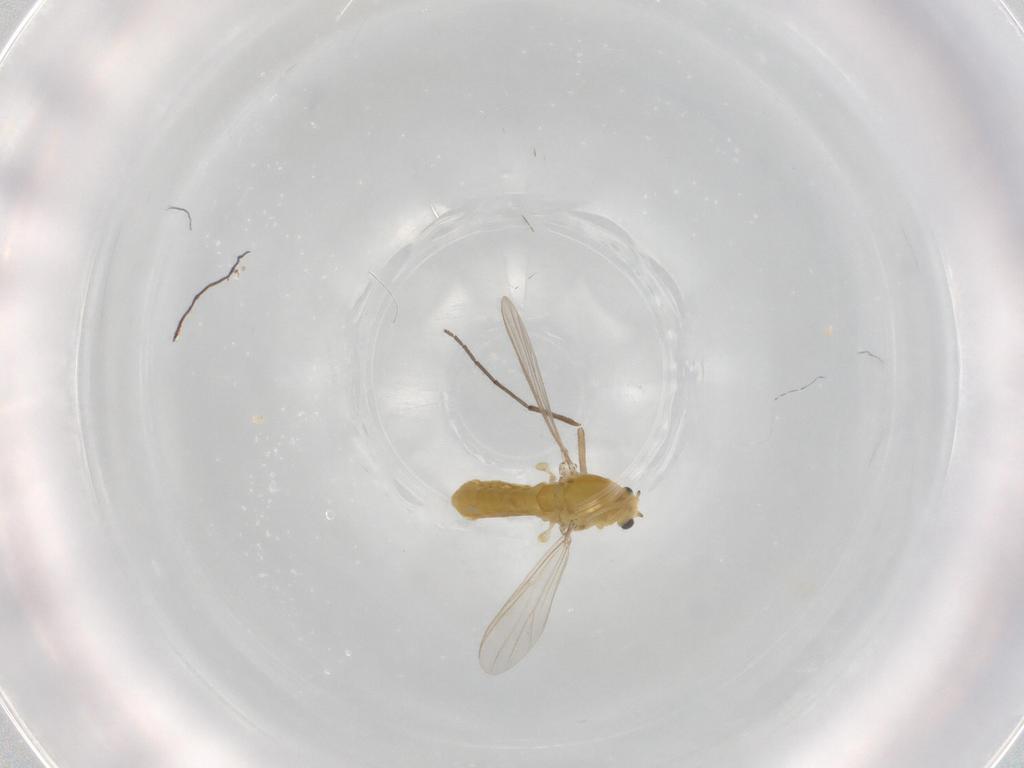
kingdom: Animalia
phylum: Arthropoda
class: Insecta
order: Diptera
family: Chironomidae
